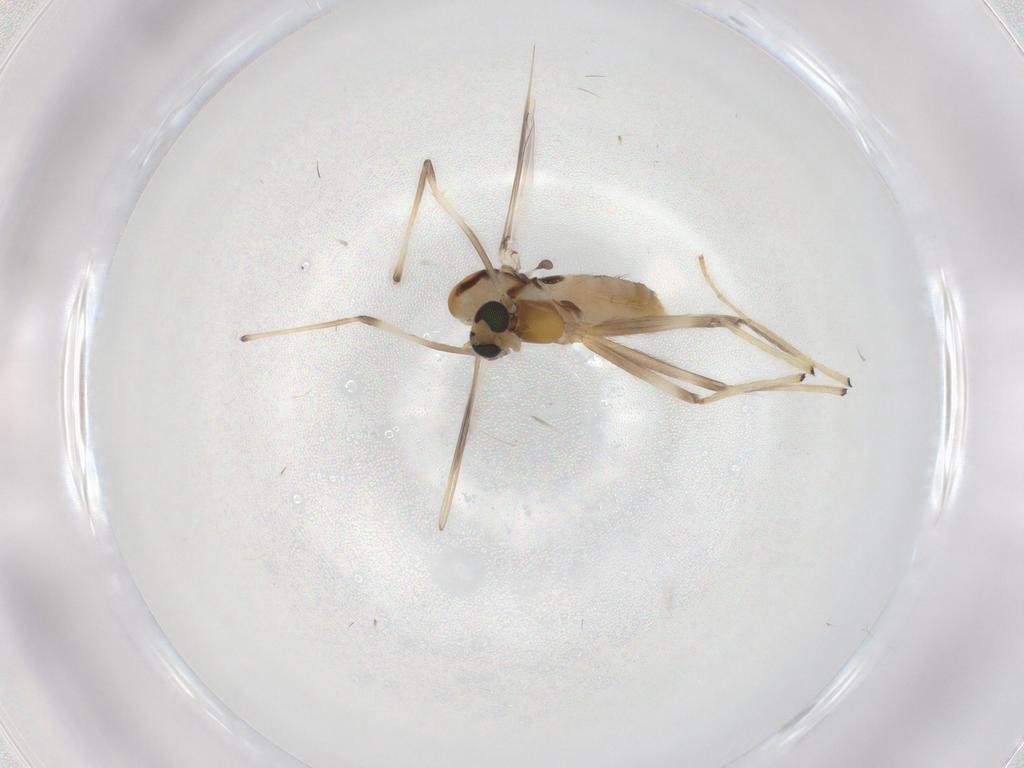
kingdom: Animalia
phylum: Arthropoda
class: Insecta
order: Diptera
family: Chironomidae
